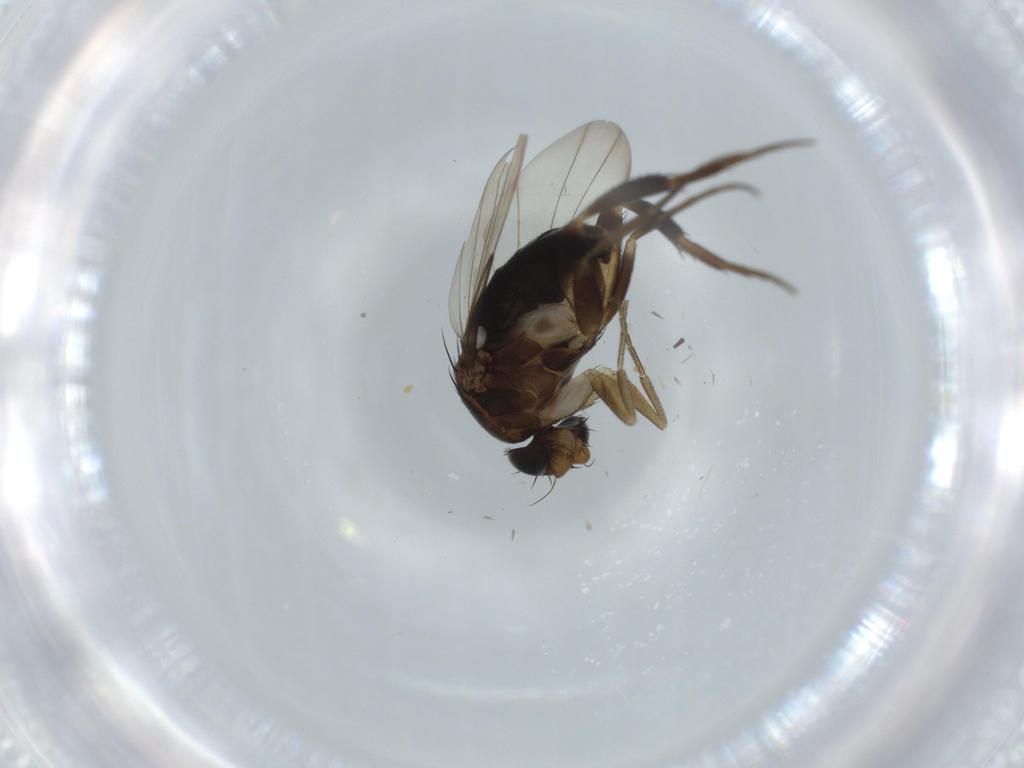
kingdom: Animalia
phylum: Arthropoda
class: Insecta
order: Diptera
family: Phoridae
